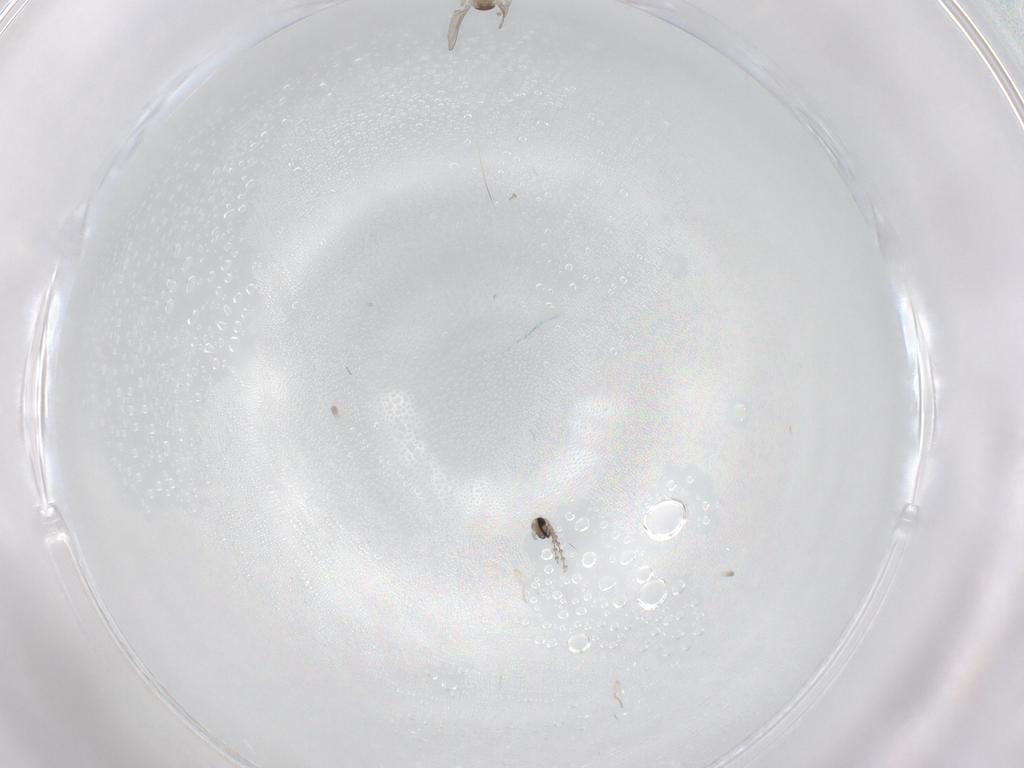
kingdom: Animalia
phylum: Arthropoda
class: Insecta
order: Diptera
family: Cecidomyiidae
